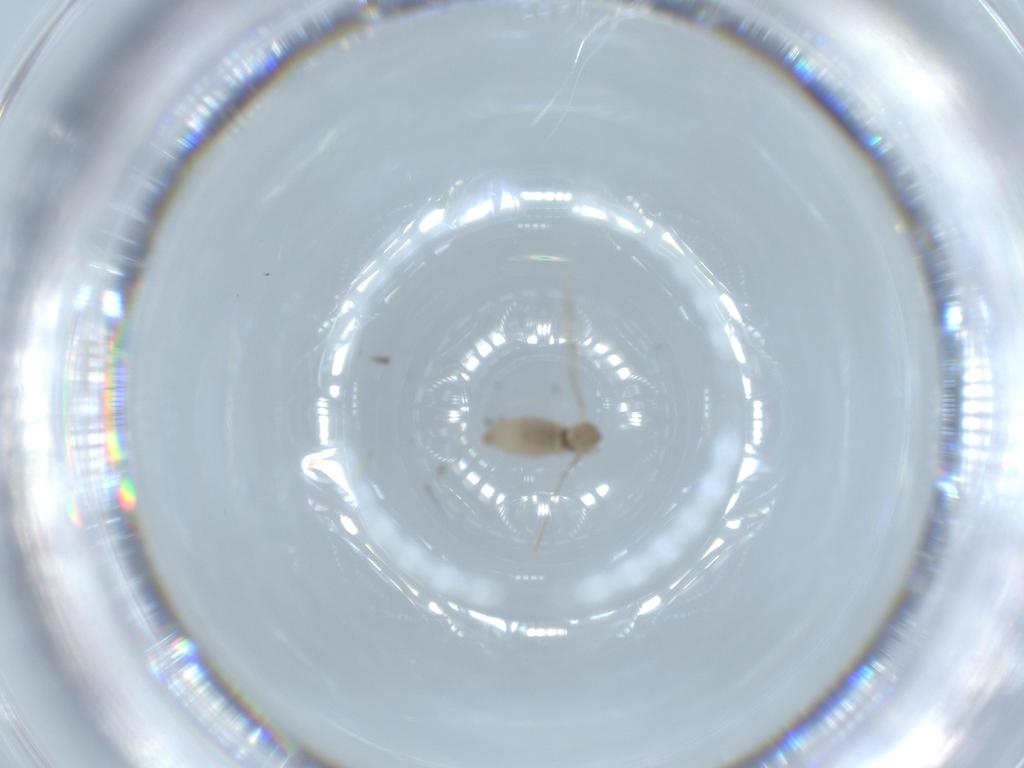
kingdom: Animalia
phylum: Arthropoda
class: Insecta
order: Diptera
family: Cecidomyiidae
